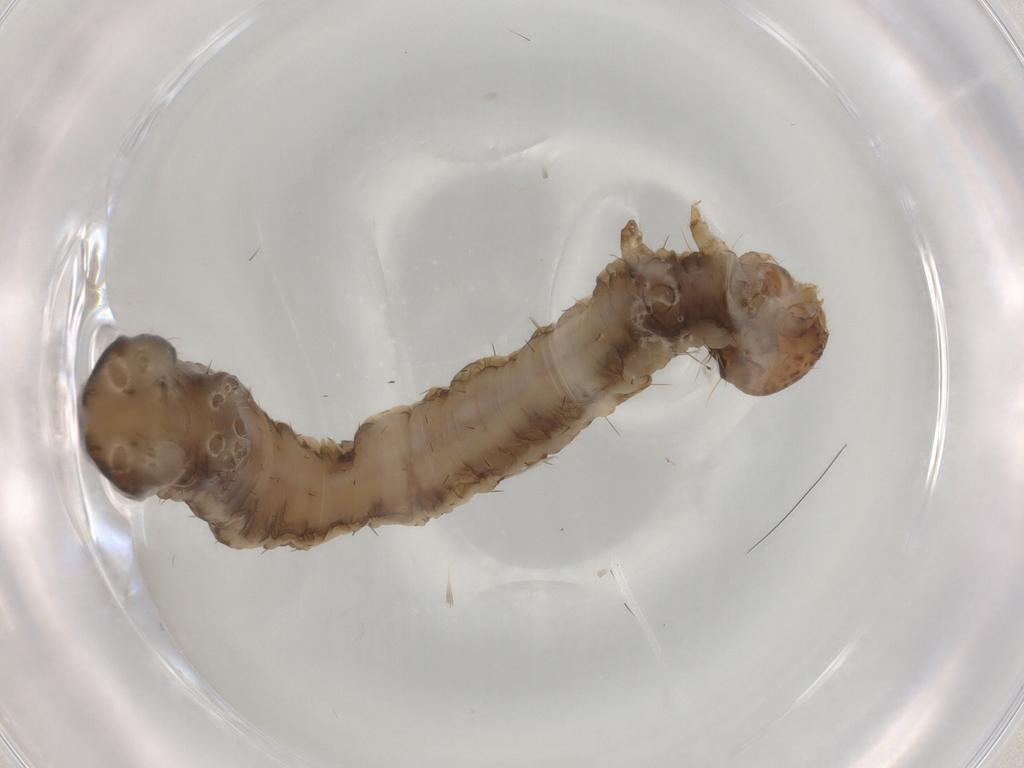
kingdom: Animalia
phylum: Arthropoda
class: Insecta
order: Lepidoptera
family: Geometridae
